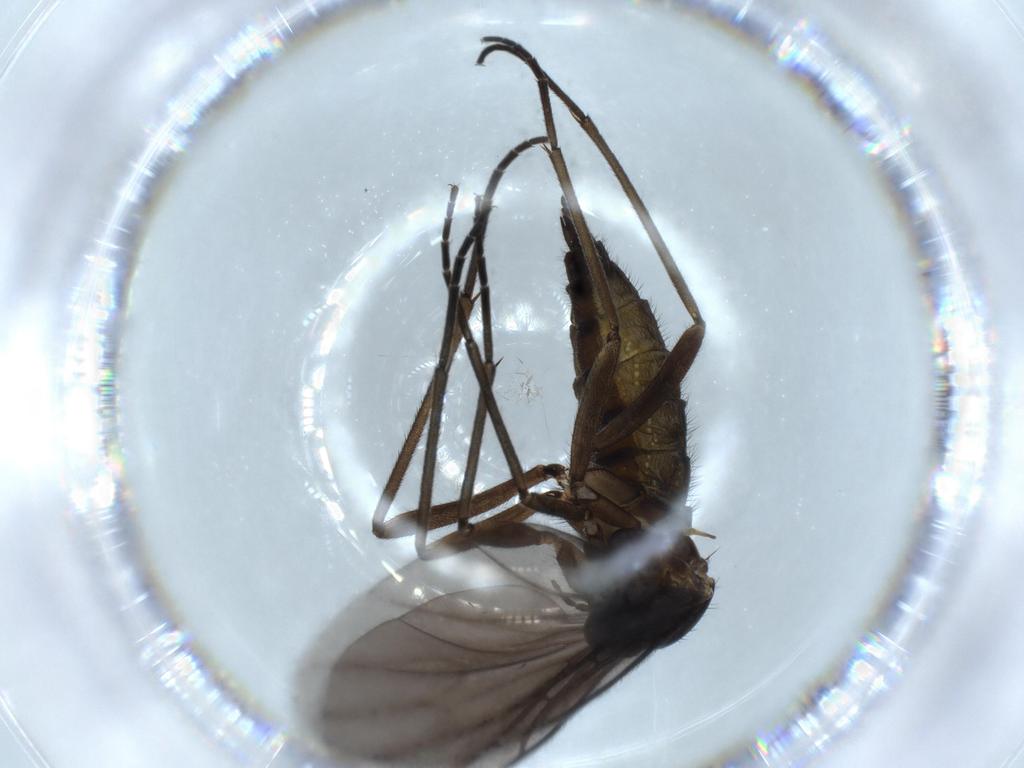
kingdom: Animalia
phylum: Arthropoda
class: Insecta
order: Diptera
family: Sciaridae
